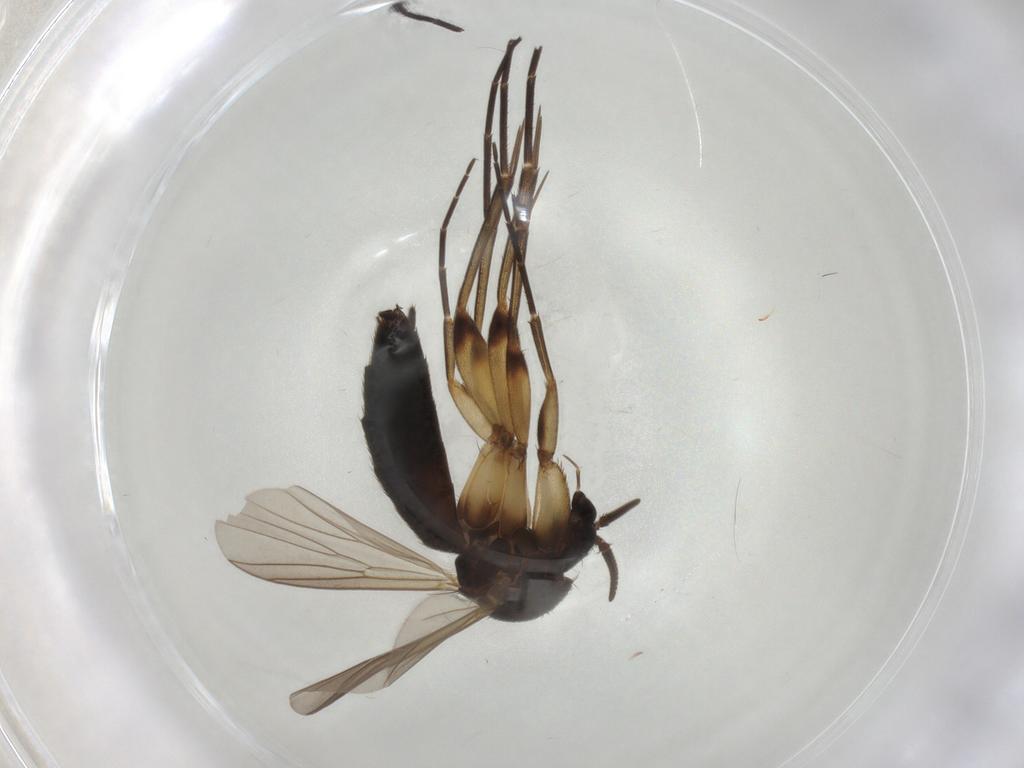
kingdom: Animalia
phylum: Arthropoda
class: Insecta
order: Diptera
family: Mycetophilidae
